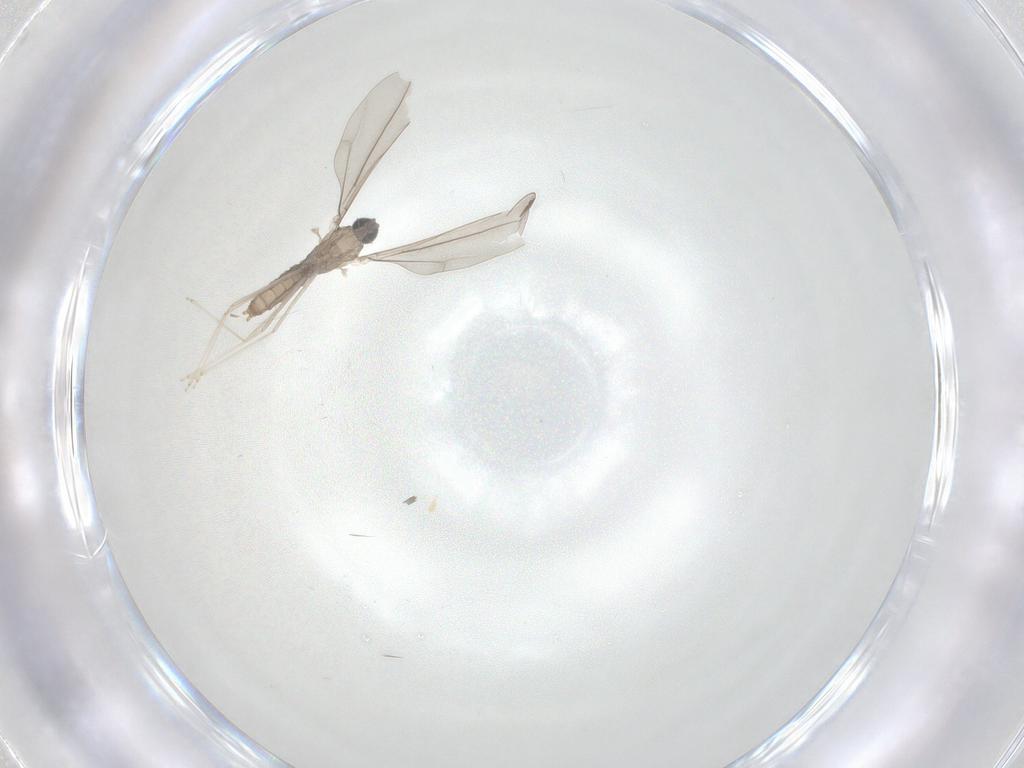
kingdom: Animalia
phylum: Arthropoda
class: Insecta
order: Diptera
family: Cecidomyiidae
